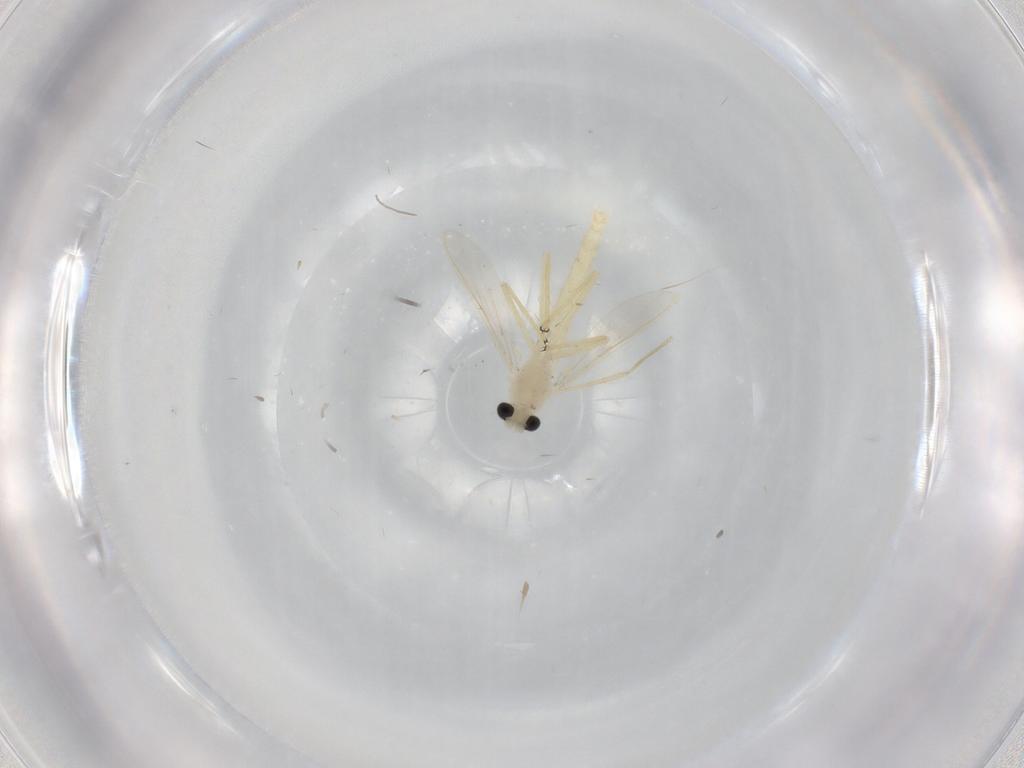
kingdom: Animalia
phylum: Arthropoda
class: Insecta
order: Diptera
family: Chironomidae
